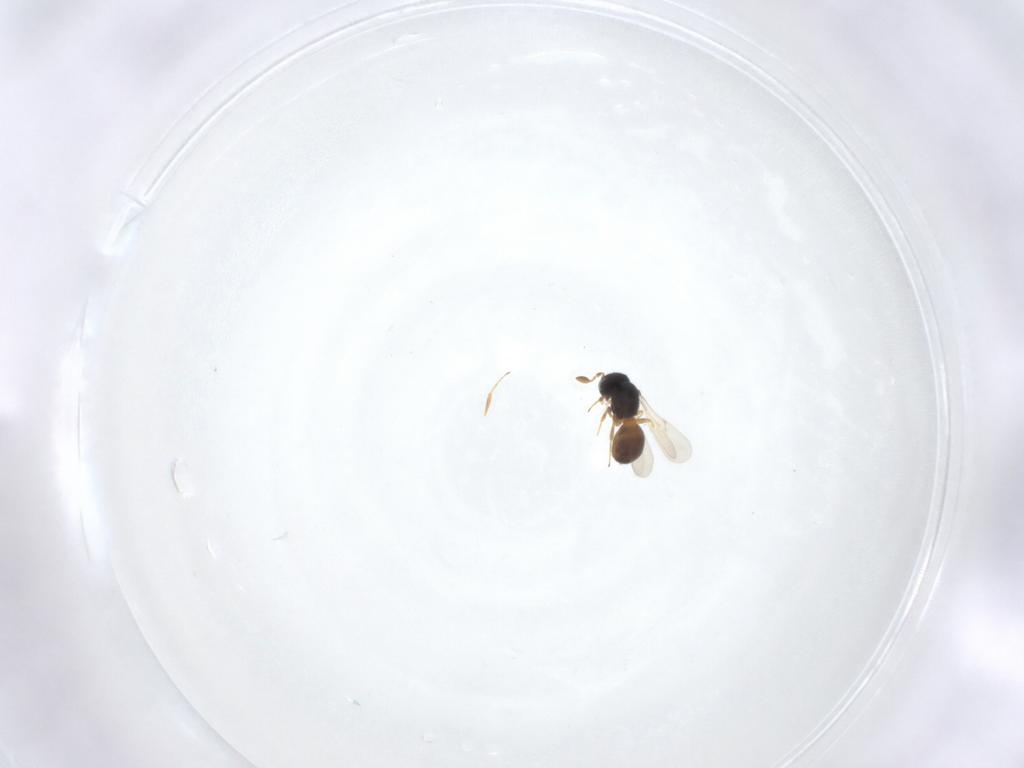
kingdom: Animalia
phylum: Arthropoda
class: Insecta
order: Hymenoptera
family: Scelionidae
